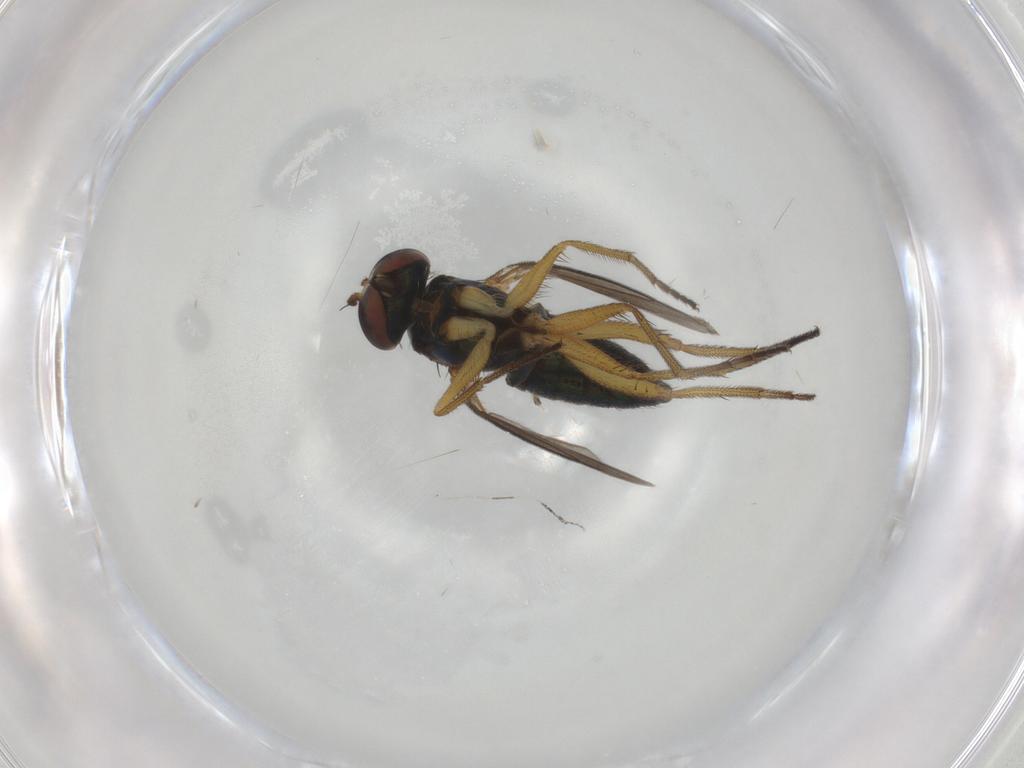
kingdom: Animalia
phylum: Arthropoda
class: Insecta
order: Diptera
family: Dolichopodidae
